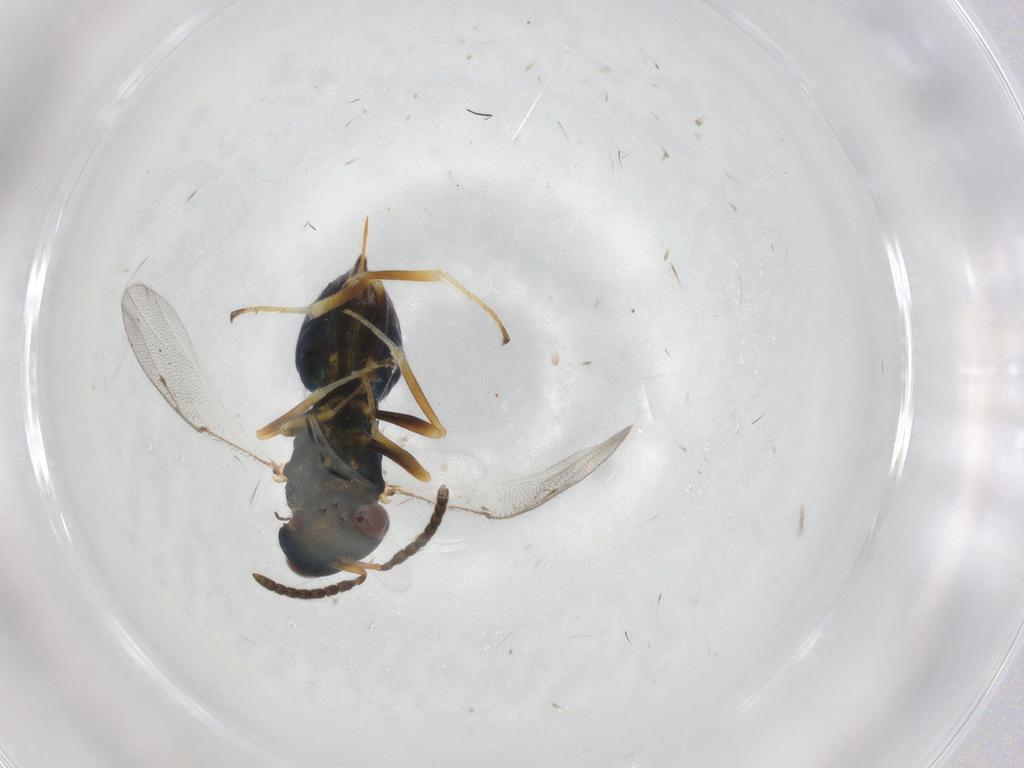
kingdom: Animalia
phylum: Arthropoda
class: Insecta
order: Hymenoptera
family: Pteromalidae
